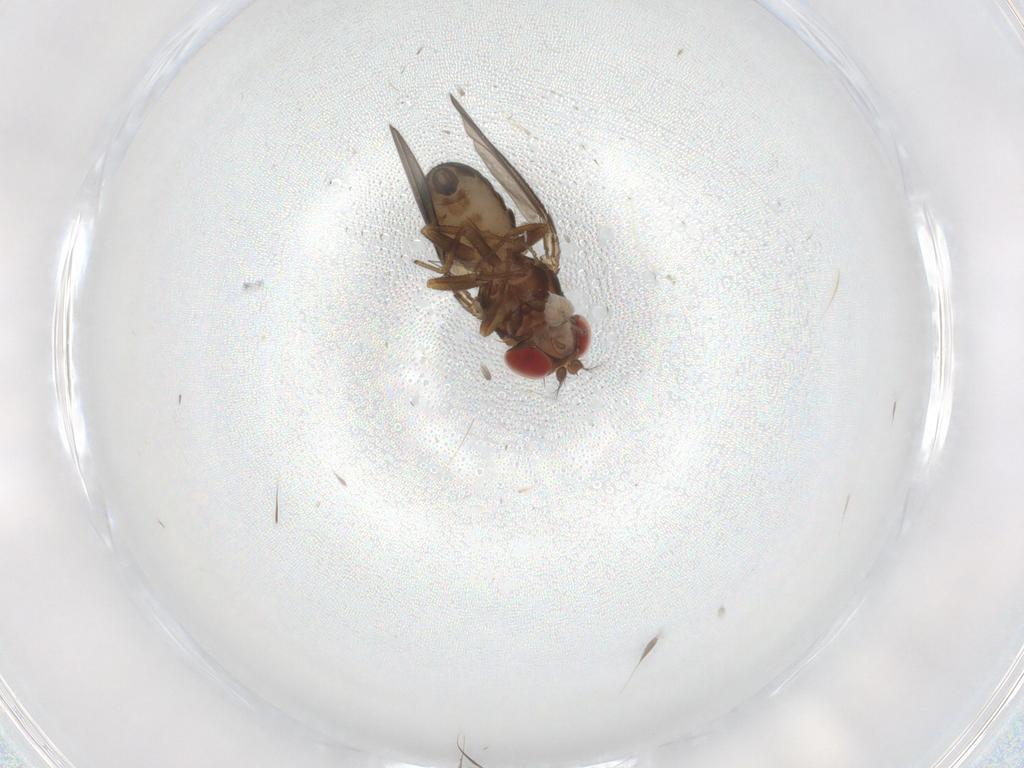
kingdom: Animalia
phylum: Arthropoda
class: Insecta
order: Diptera
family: Drosophilidae
